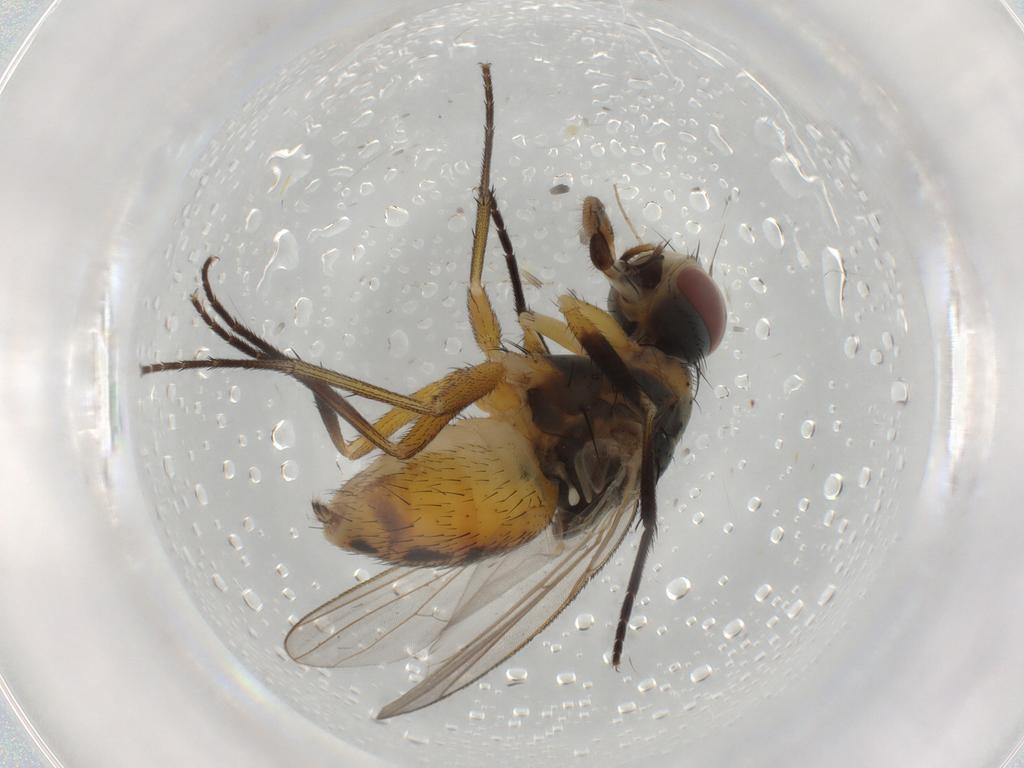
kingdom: Animalia
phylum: Arthropoda
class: Insecta
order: Diptera
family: Muscidae
